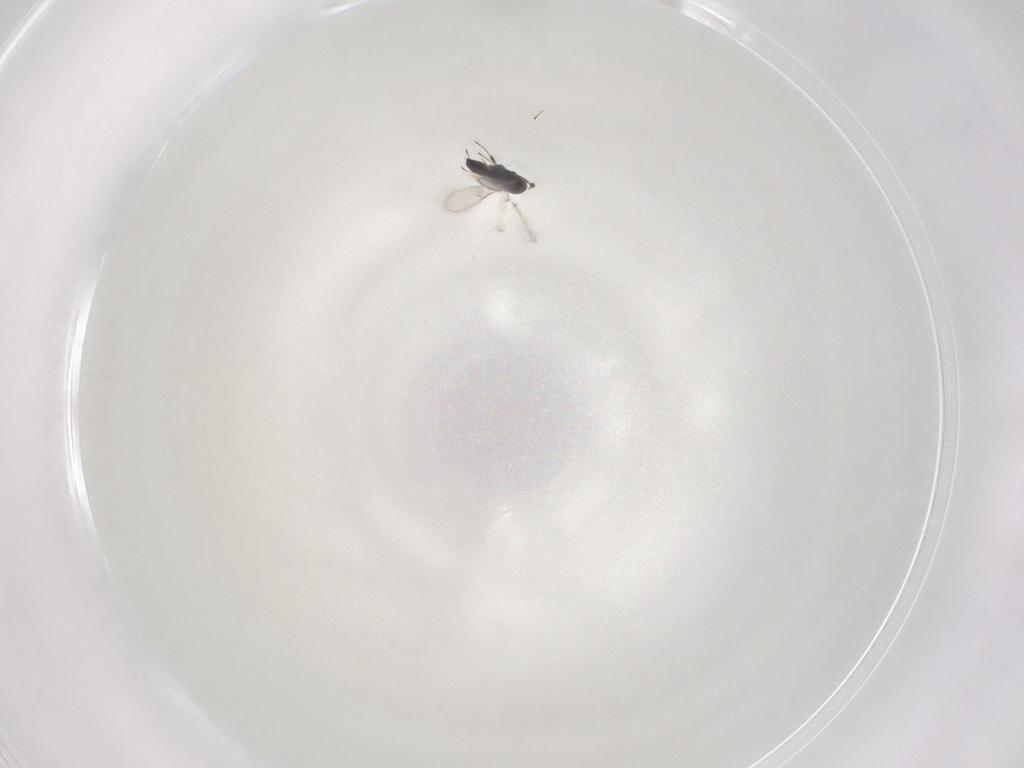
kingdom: Animalia
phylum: Arthropoda
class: Insecta
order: Hymenoptera
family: Scelionidae
